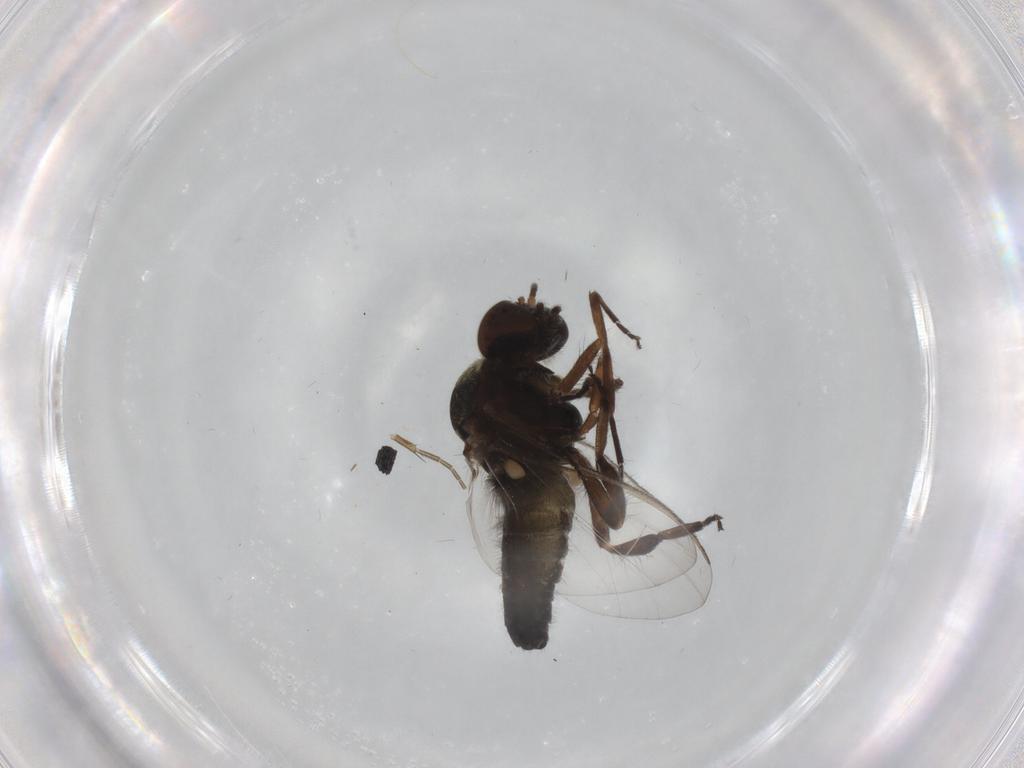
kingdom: Animalia
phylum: Arthropoda
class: Insecta
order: Diptera
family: Chironomidae
